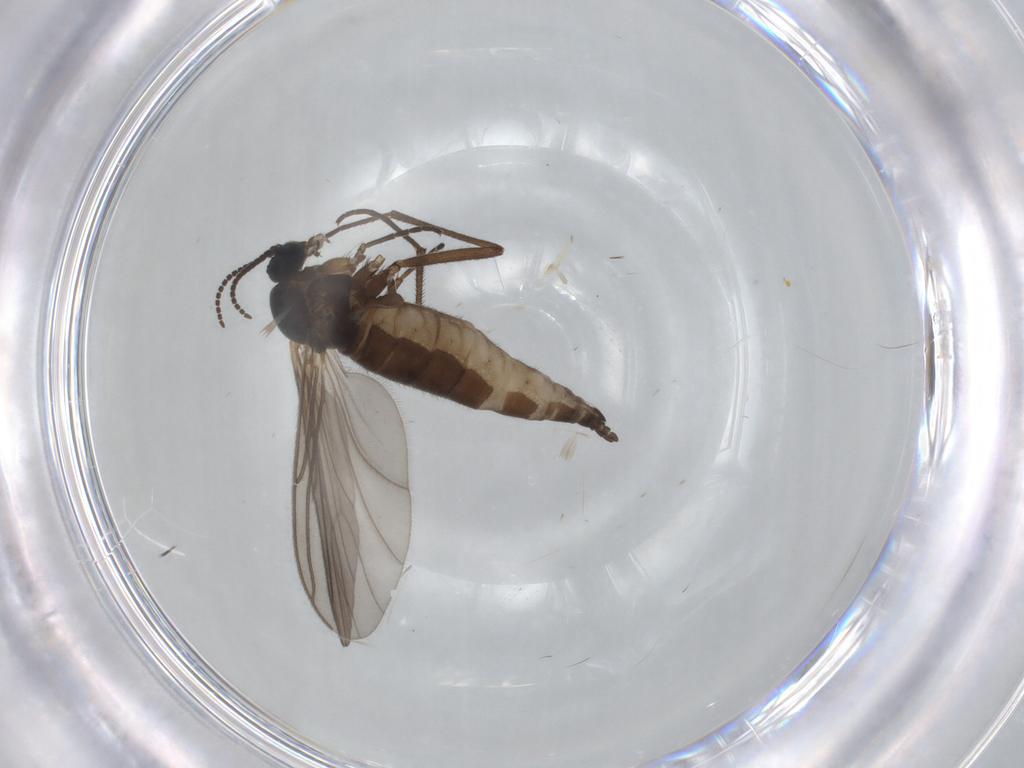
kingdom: Animalia
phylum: Arthropoda
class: Insecta
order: Diptera
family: Sciaridae
